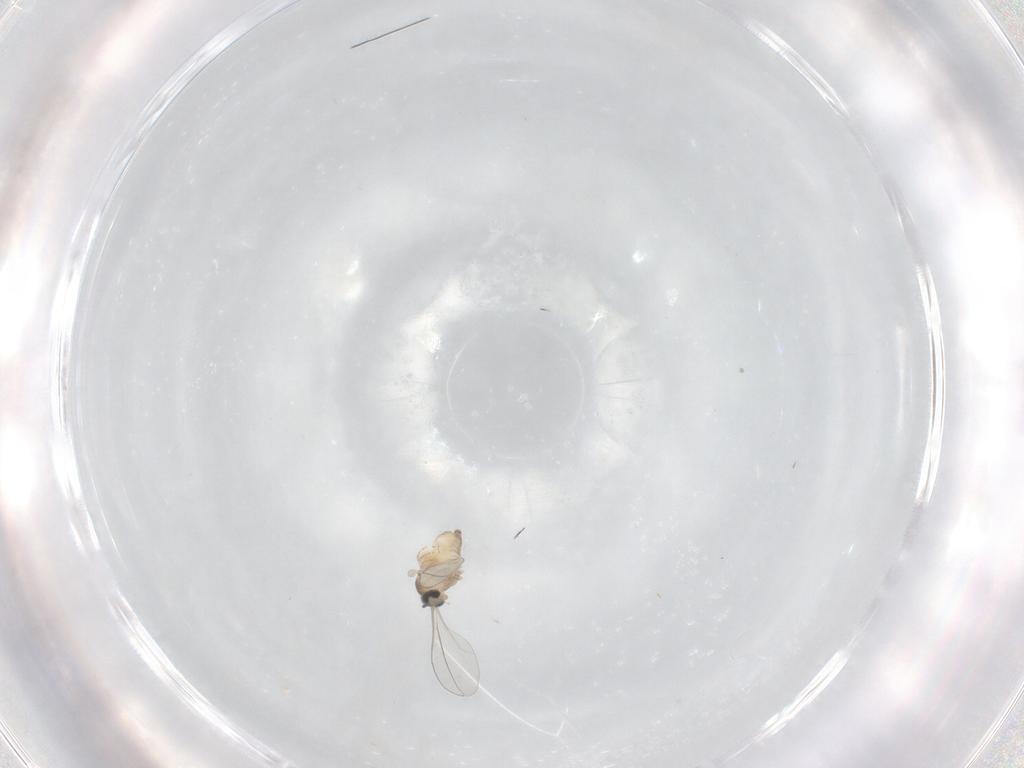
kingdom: Animalia
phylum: Arthropoda
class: Insecta
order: Diptera
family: Cecidomyiidae
